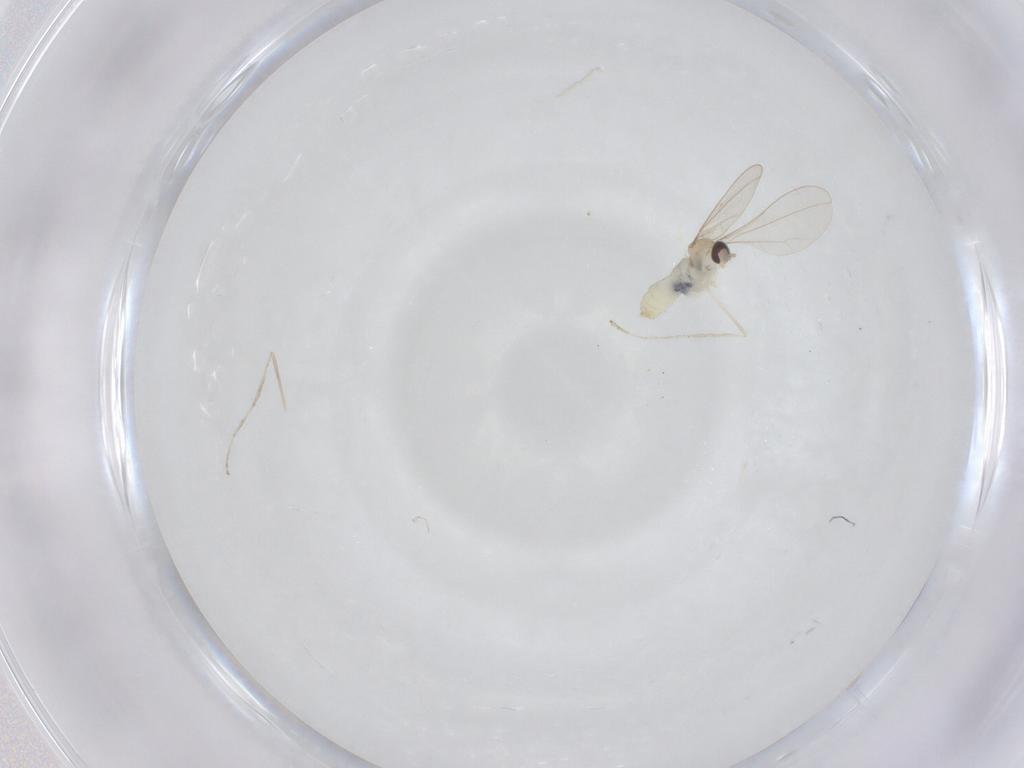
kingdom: Animalia
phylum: Arthropoda
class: Insecta
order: Diptera
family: Cecidomyiidae
